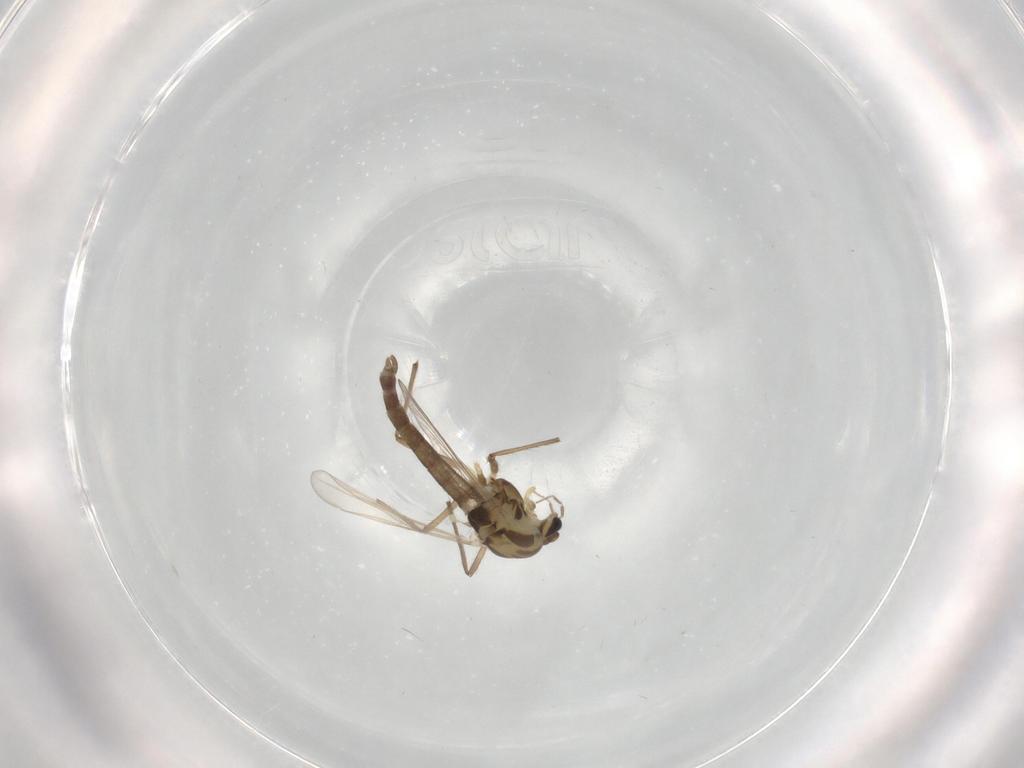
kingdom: Animalia
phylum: Arthropoda
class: Insecta
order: Diptera
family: Chironomidae
